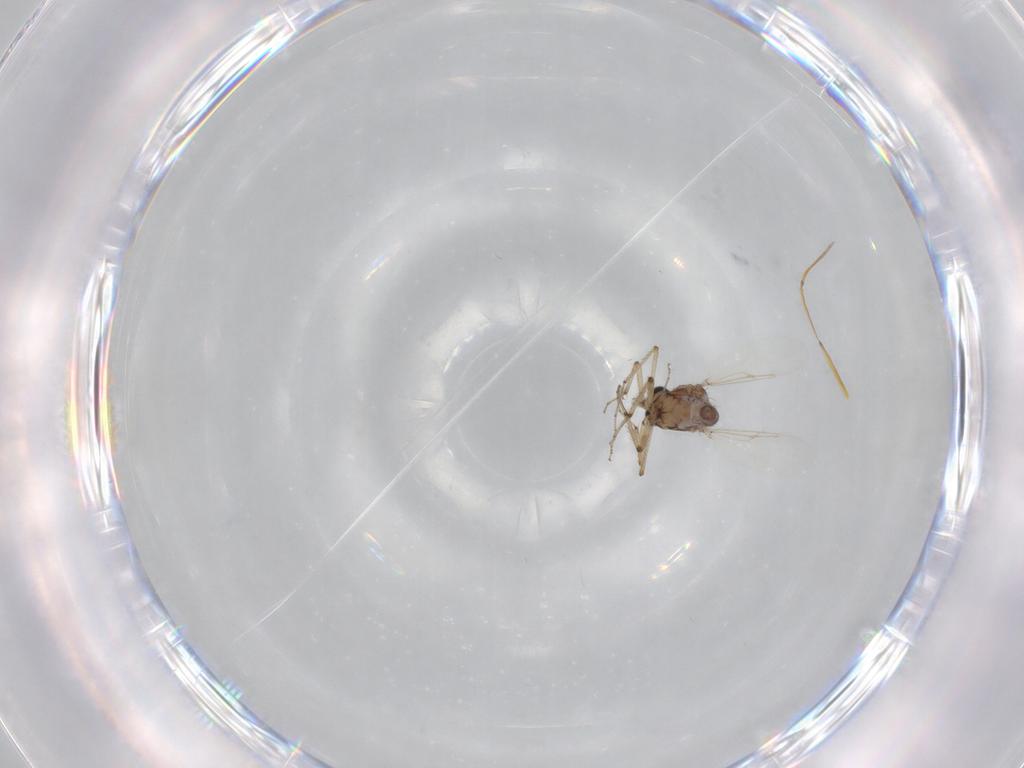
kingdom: Animalia
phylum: Arthropoda
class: Insecta
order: Diptera
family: Ceratopogonidae
